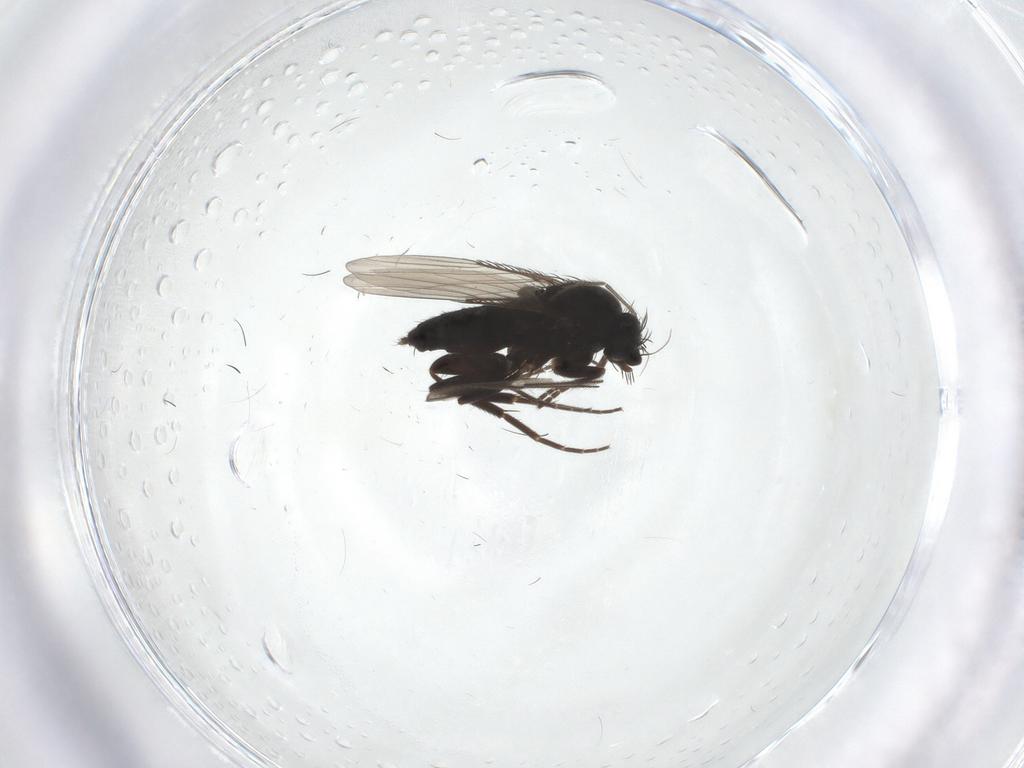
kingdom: Animalia
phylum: Arthropoda
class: Insecta
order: Diptera
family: Phoridae
